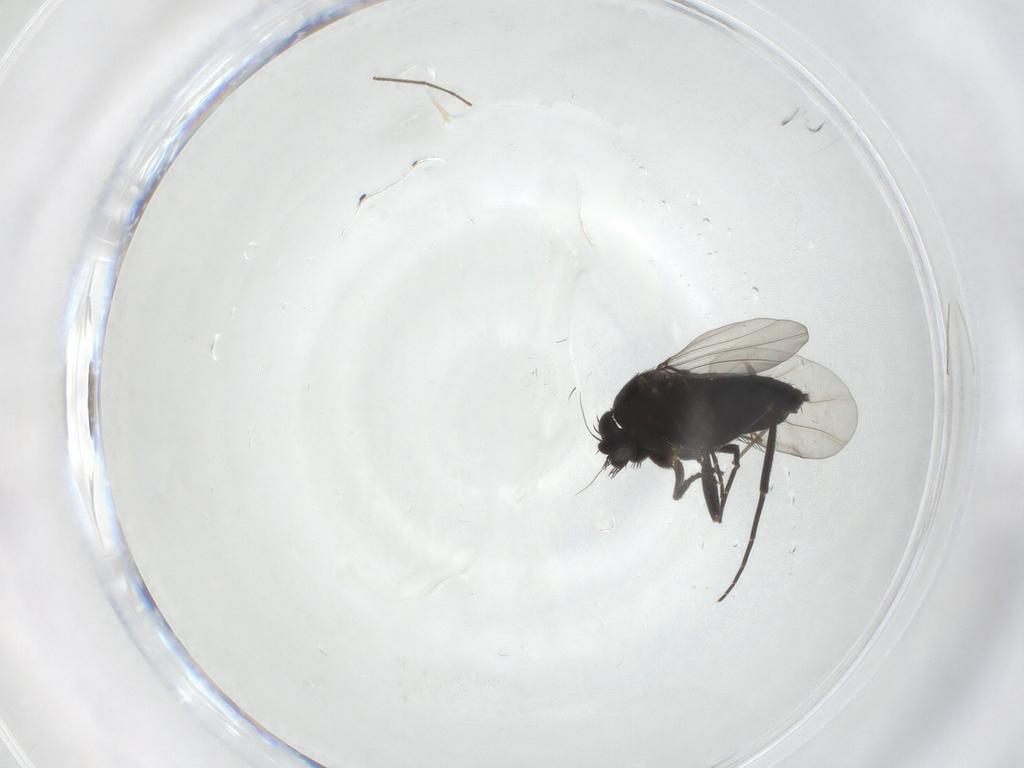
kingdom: Animalia
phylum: Arthropoda
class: Insecta
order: Diptera
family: Phoridae
